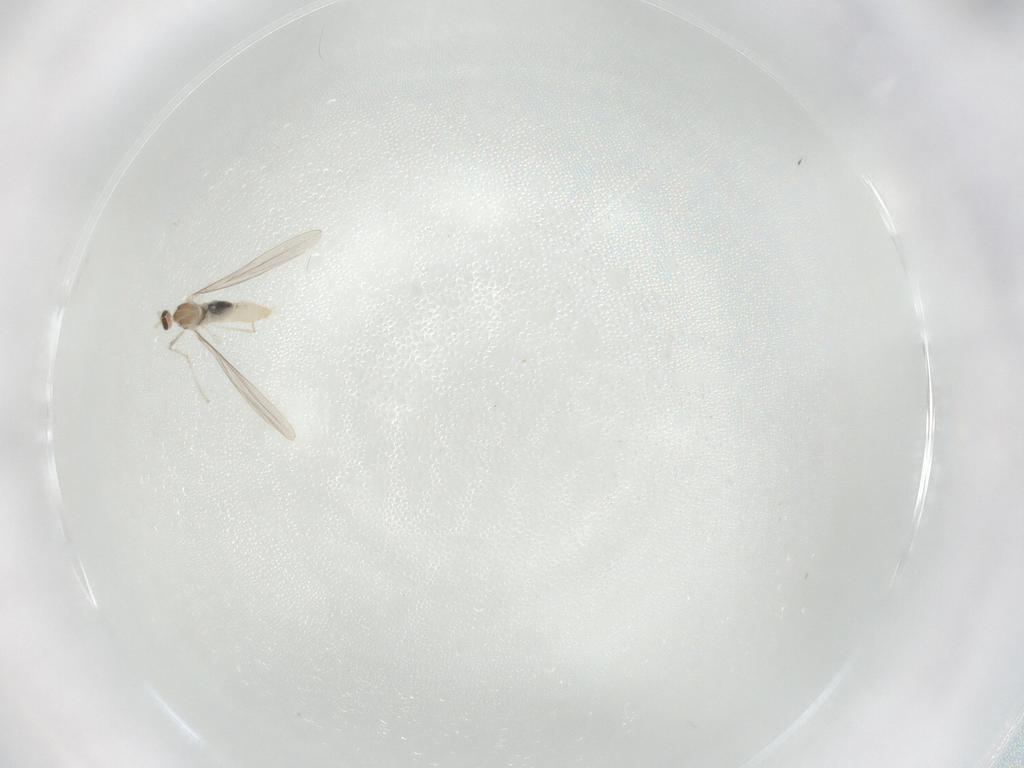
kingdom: Animalia
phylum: Arthropoda
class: Insecta
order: Diptera
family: Cecidomyiidae
